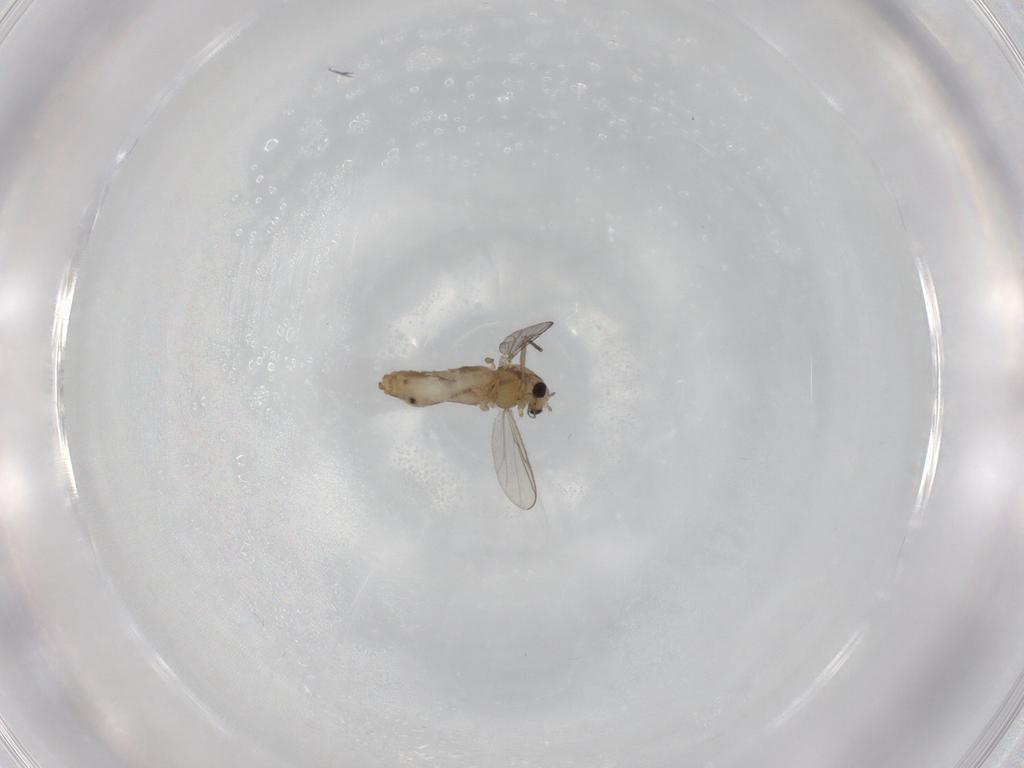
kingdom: Animalia
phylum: Arthropoda
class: Insecta
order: Diptera
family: Chironomidae
